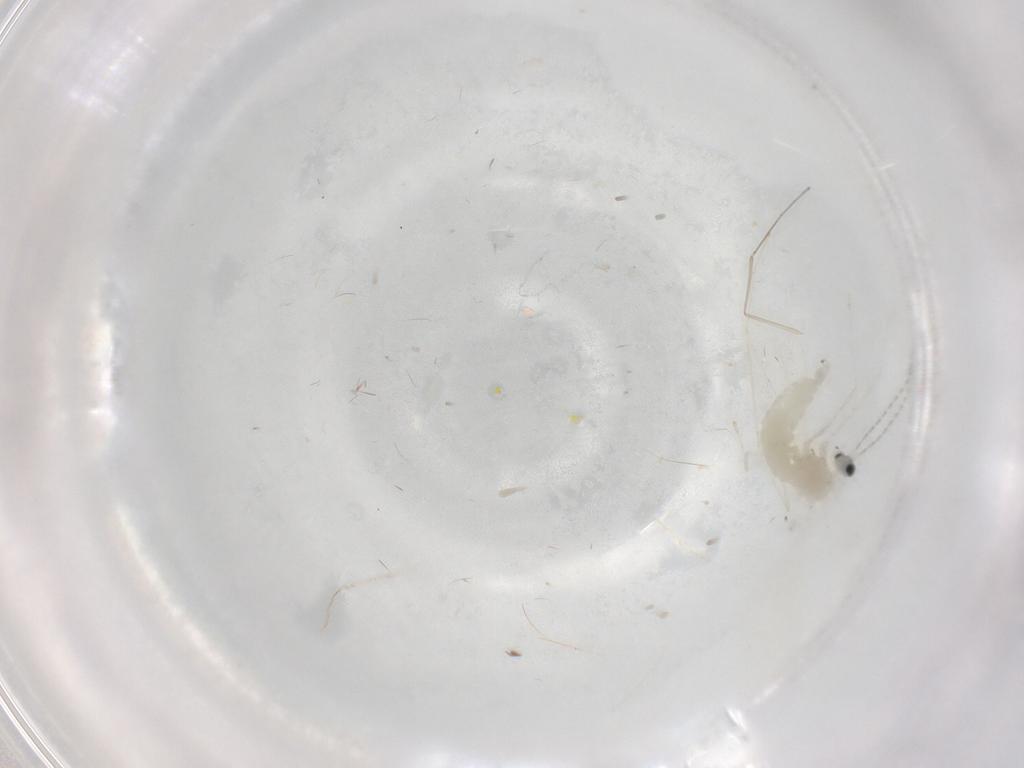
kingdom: Animalia
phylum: Arthropoda
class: Insecta
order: Diptera
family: Cecidomyiidae
